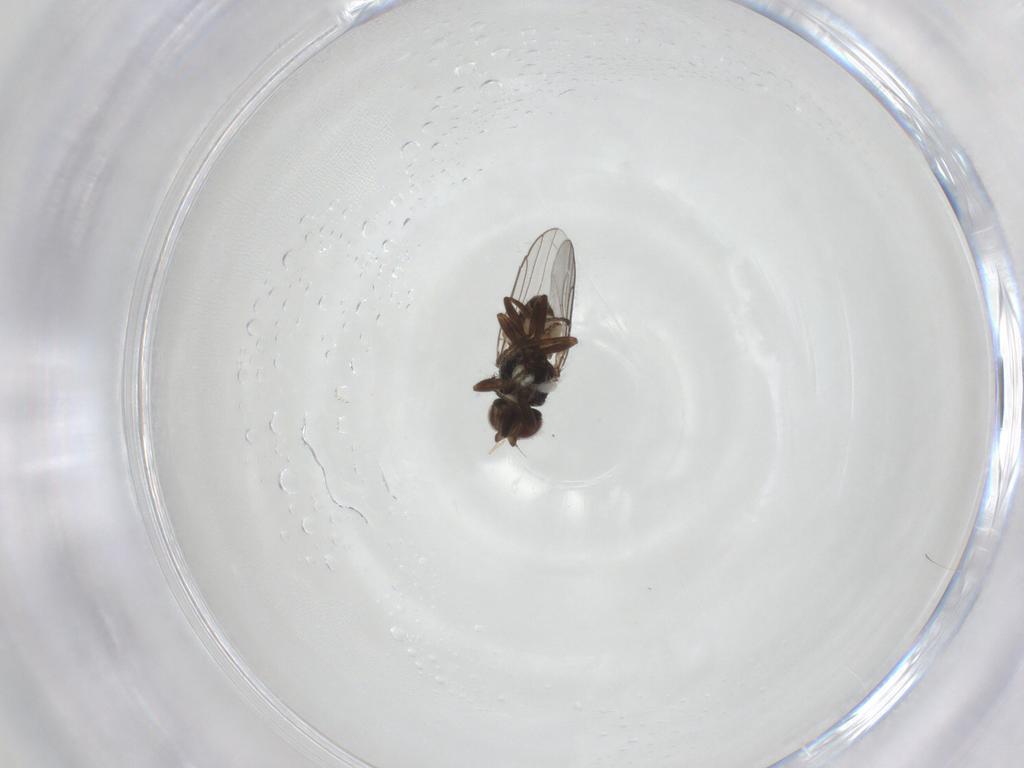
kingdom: Animalia
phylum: Arthropoda
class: Insecta
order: Diptera
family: Chloropidae
